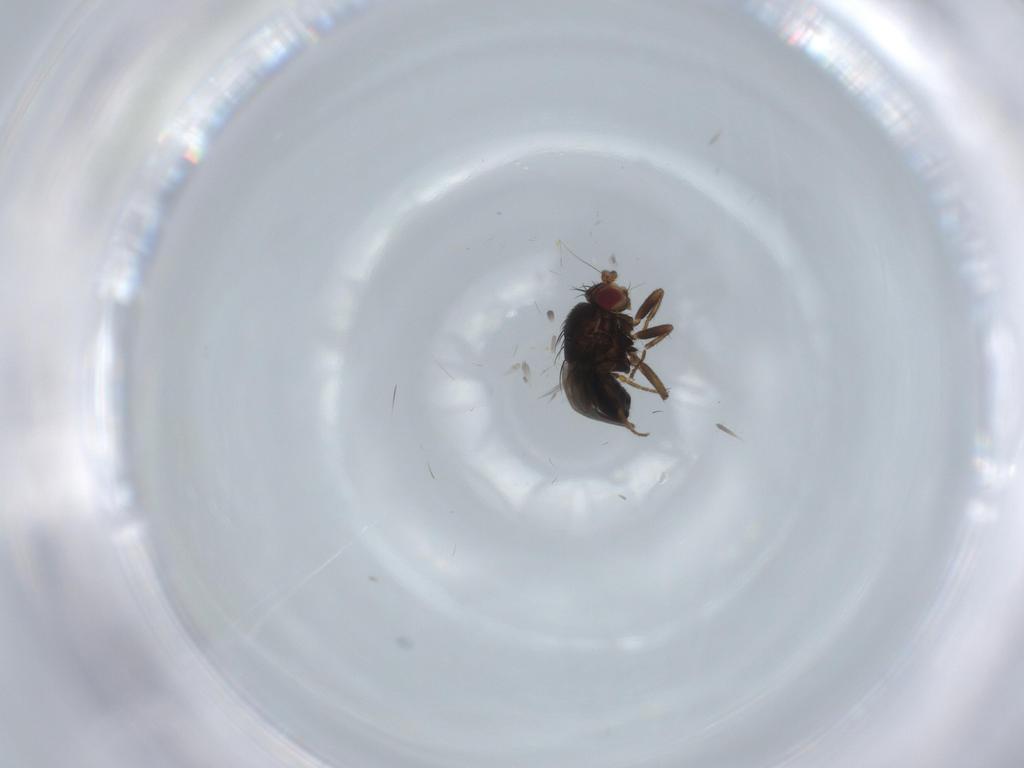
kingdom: Animalia
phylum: Arthropoda
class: Insecta
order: Diptera
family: Sphaeroceridae
